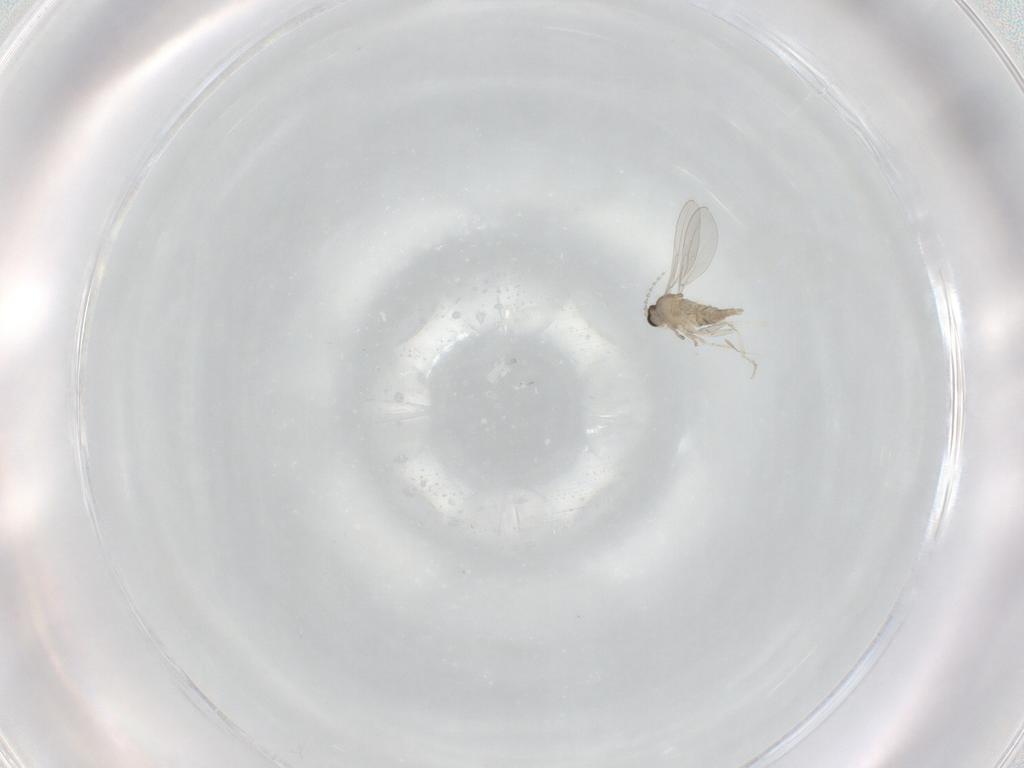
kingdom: Animalia
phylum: Arthropoda
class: Insecta
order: Diptera
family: Cecidomyiidae
